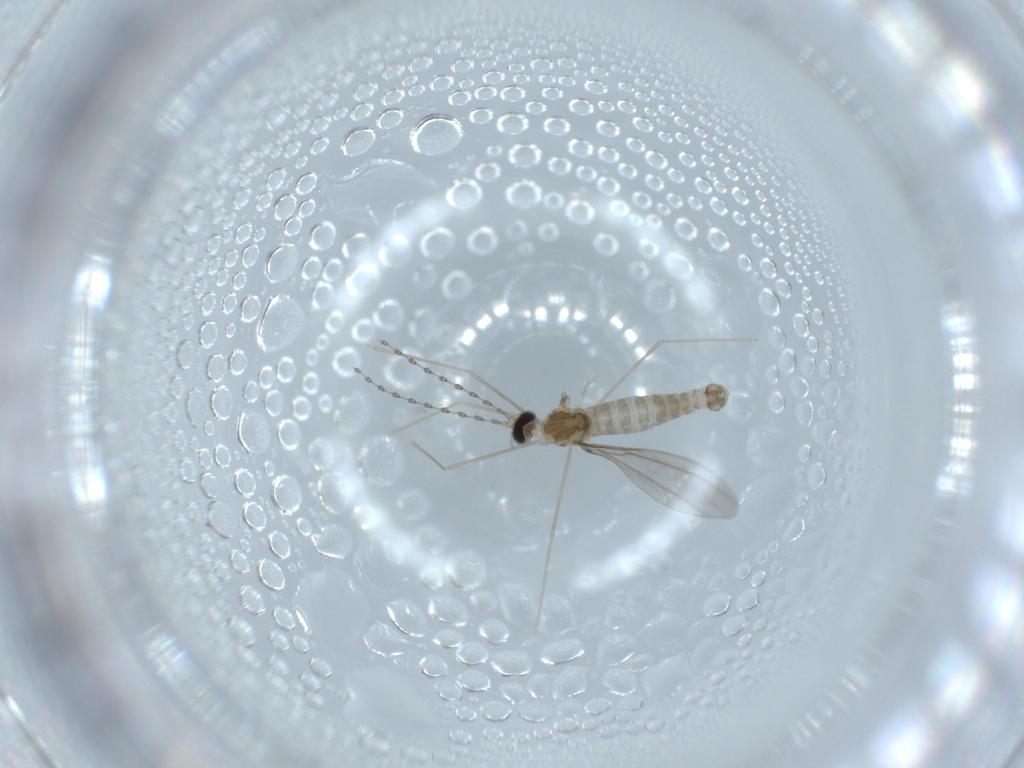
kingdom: Animalia
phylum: Arthropoda
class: Insecta
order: Diptera
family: Cecidomyiidae
